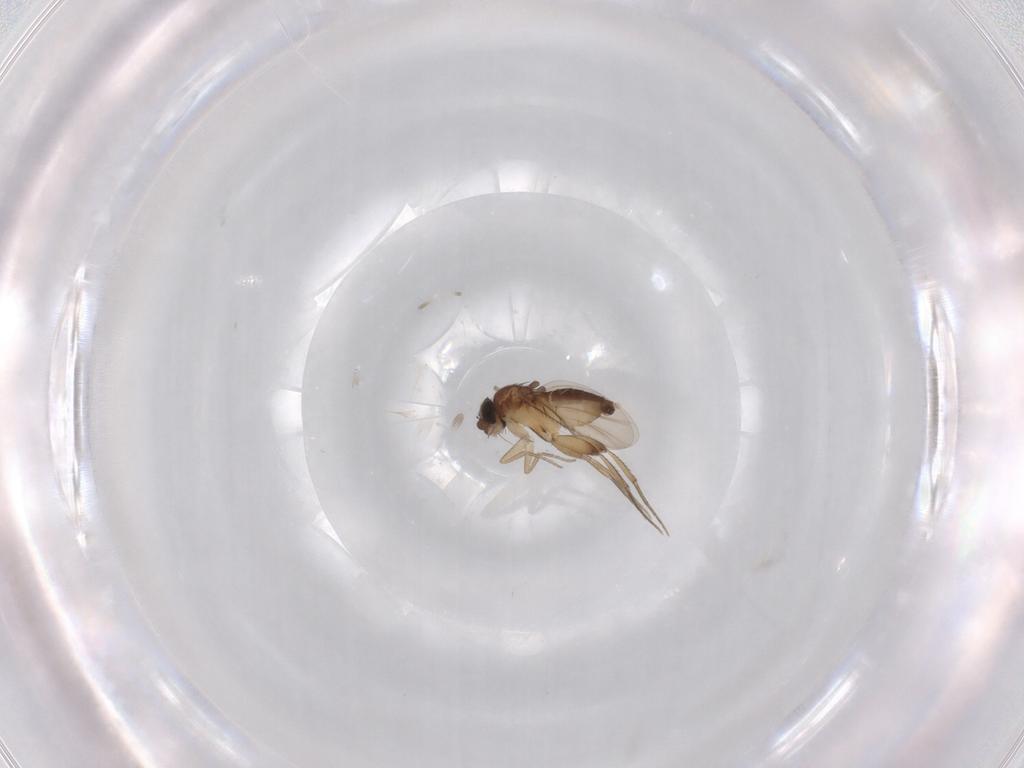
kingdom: Animalia
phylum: Arthropoda
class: Insecta
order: Diptera
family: Phoridae
